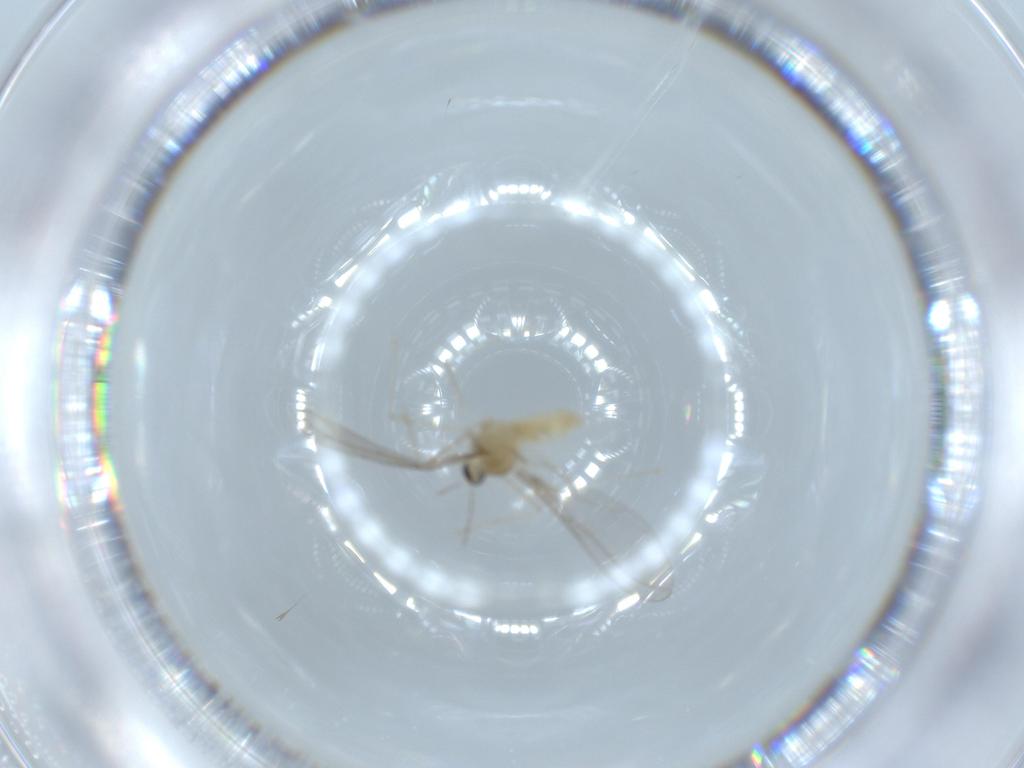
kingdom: Animalia
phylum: Arthropoda
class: Insecta
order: Diptera
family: Cecidomyiidae
